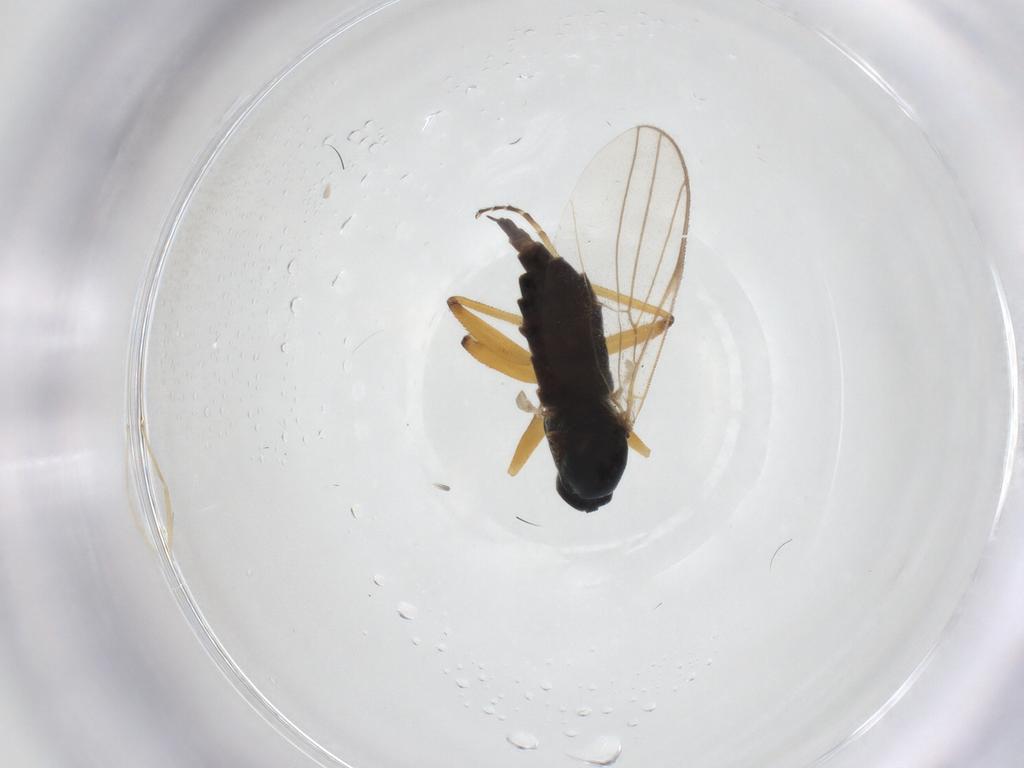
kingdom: Animalia
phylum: Arthropoda
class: Insecta
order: Diptera
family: Hybotidae
